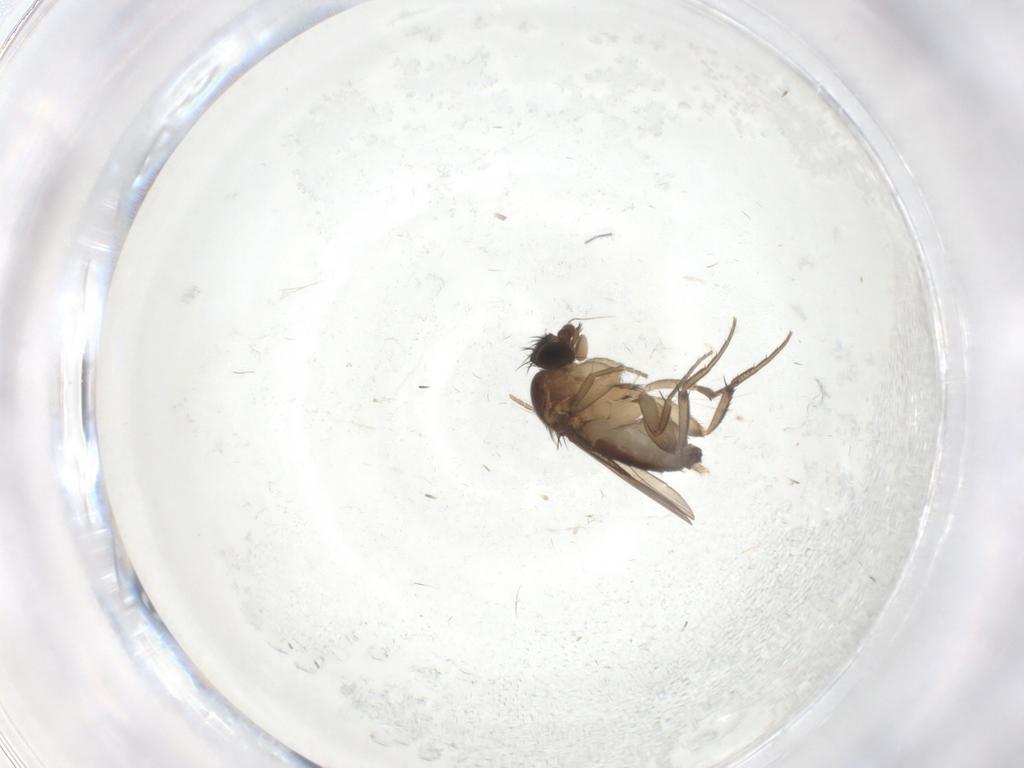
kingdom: Animalia
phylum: Arthropoda
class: Insecta
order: Diptera
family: Phoridae
